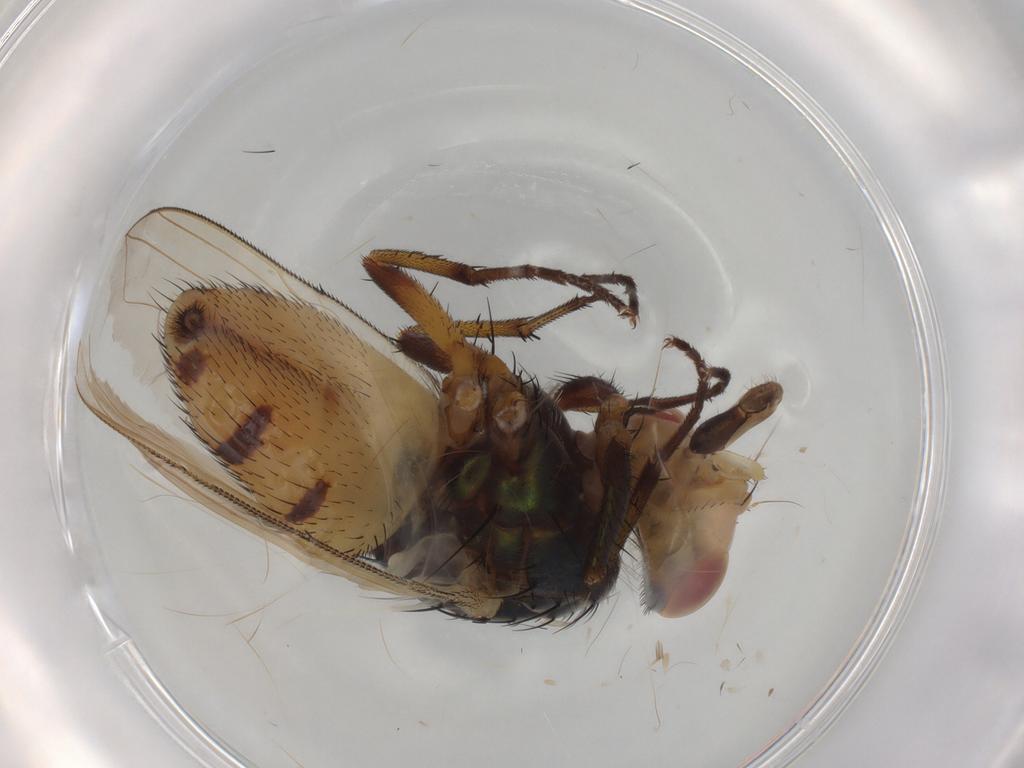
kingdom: Animalia
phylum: Arthropoda
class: Insecta
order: Diptera
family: Calliphoridae
